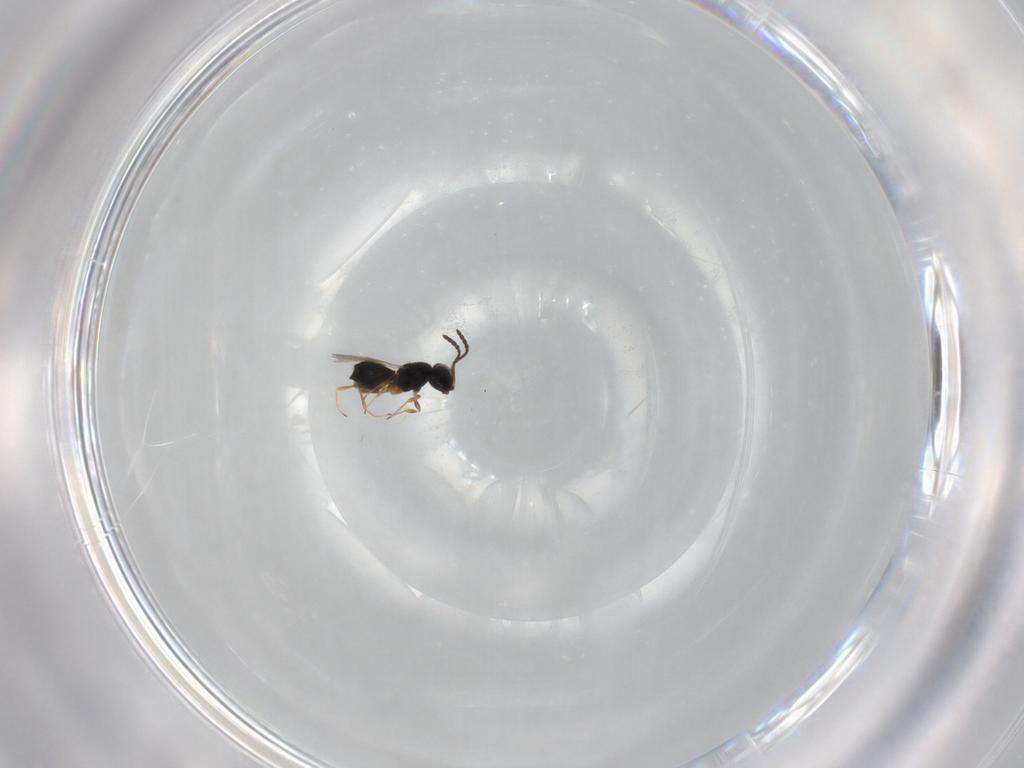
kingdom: Animalia
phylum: Arthropoda
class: Insecta
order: Hymenoptera
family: Scelionidae
